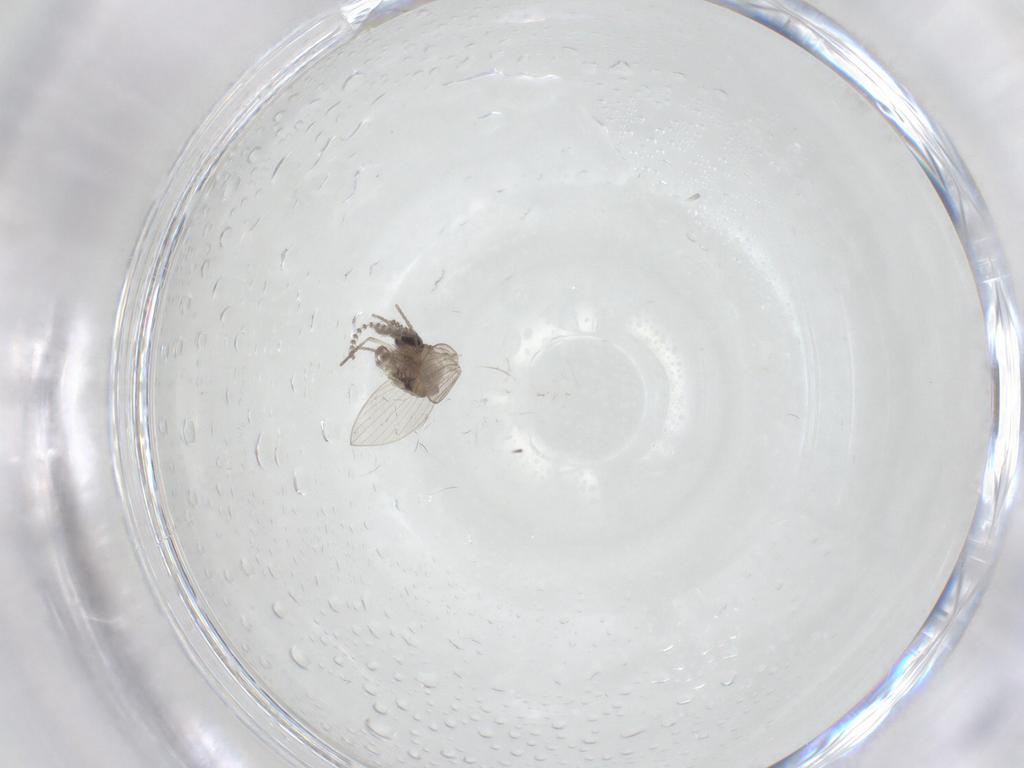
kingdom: Animalia
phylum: Arthropoda
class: Insecta
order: Diptera
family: Psychodidae
